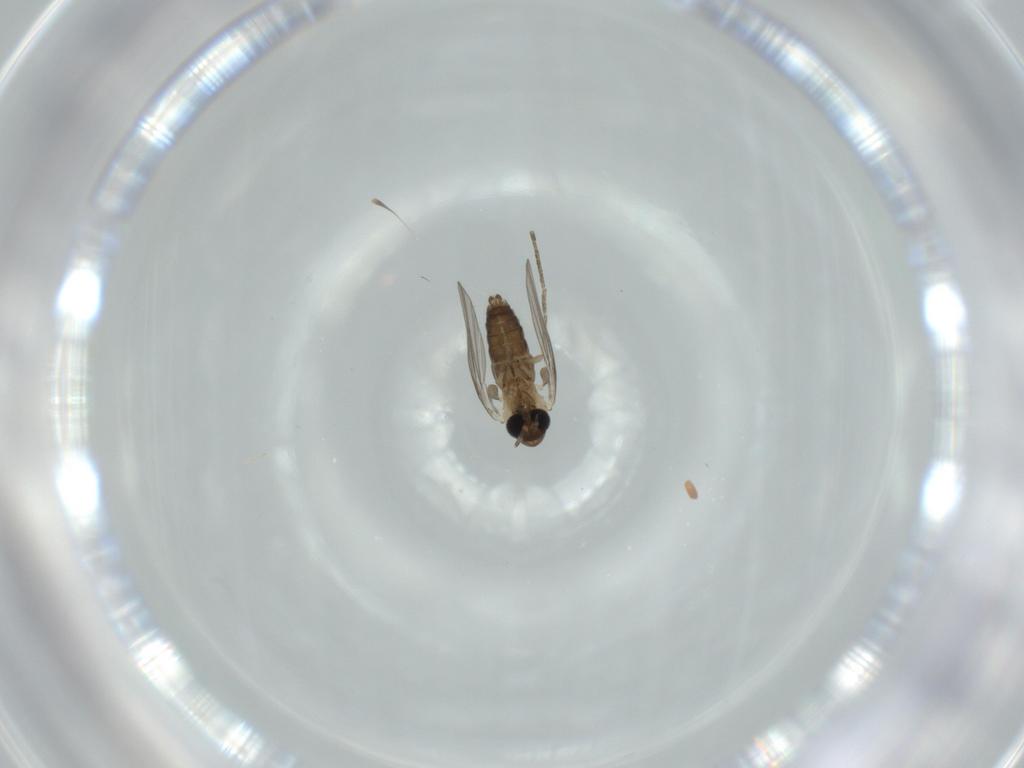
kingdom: Animalia
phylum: Arthropoda
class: Insecta
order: Diptera
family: Psychodidae
